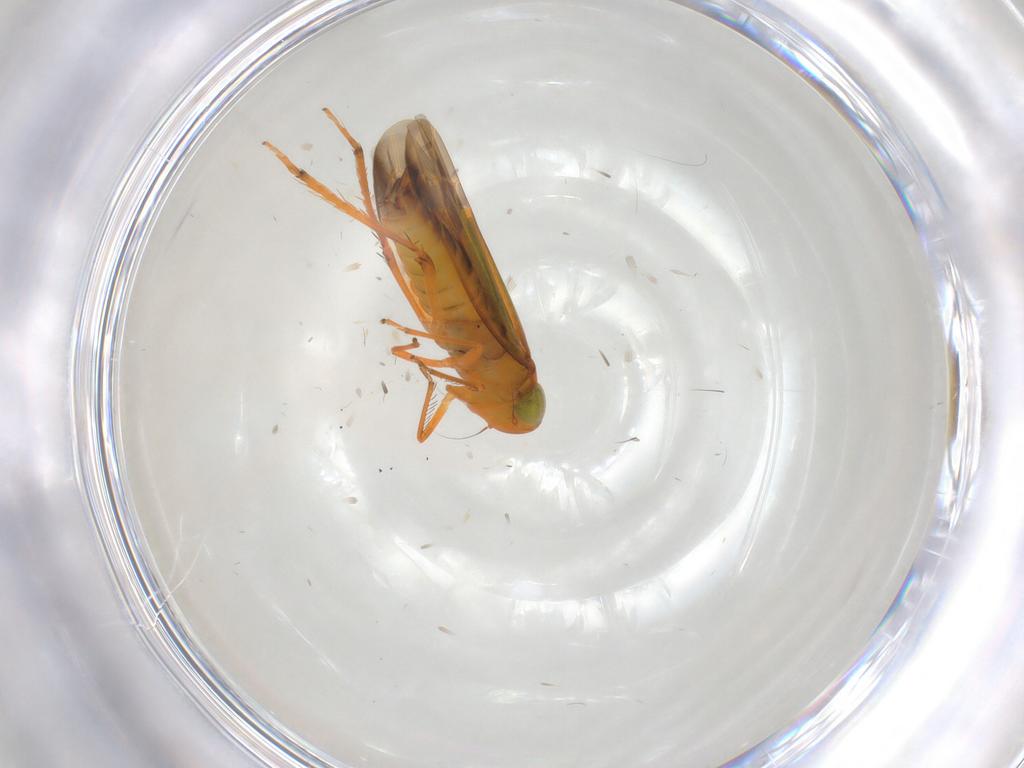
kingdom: Animalia
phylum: Arthropoda
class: Insecta
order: Hemiptera
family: Cicadellidae
